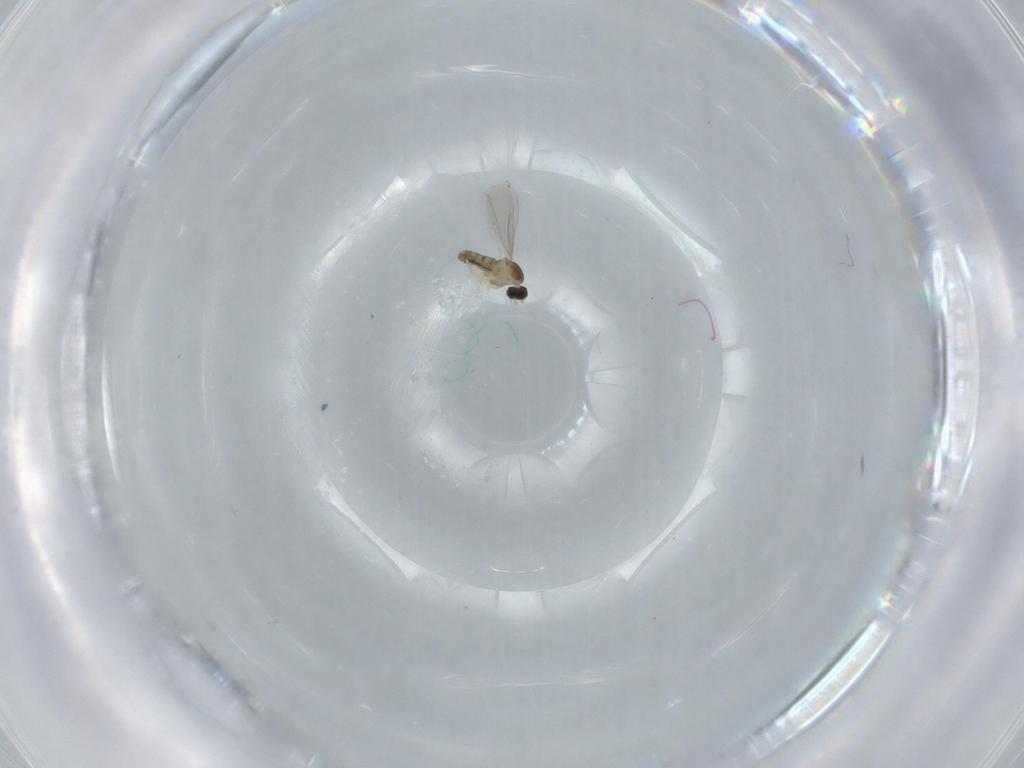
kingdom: Animalia
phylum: Arthropoda
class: Insecta
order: Diptera
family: Cecidomyiidae
